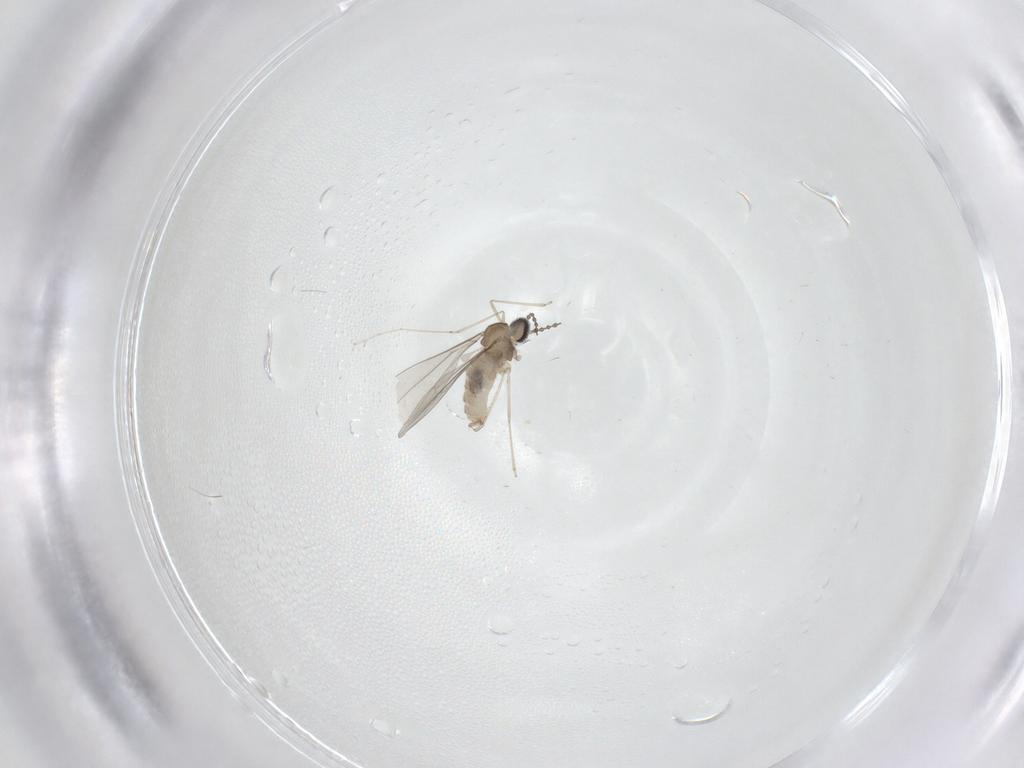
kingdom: Animalia
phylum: Arthropoda
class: Insecta
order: Diptera
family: Cecidomyiidae
